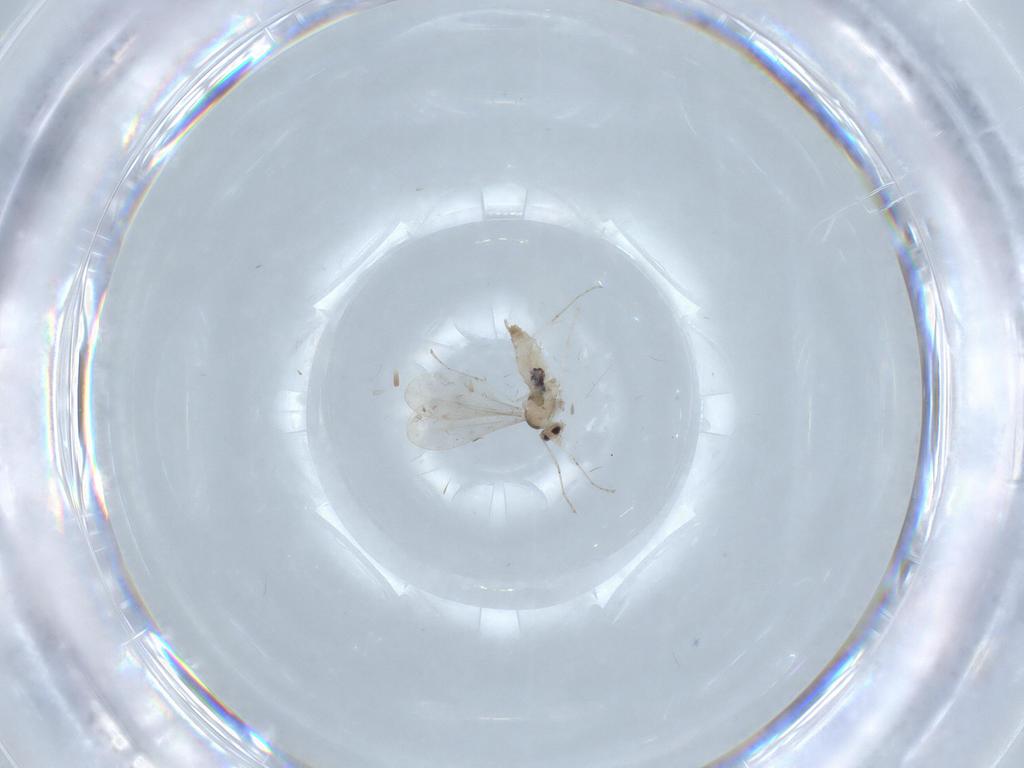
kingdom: Animalia
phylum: Arthropoda
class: Insecta
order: Diptera
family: Cecidomyiidae
